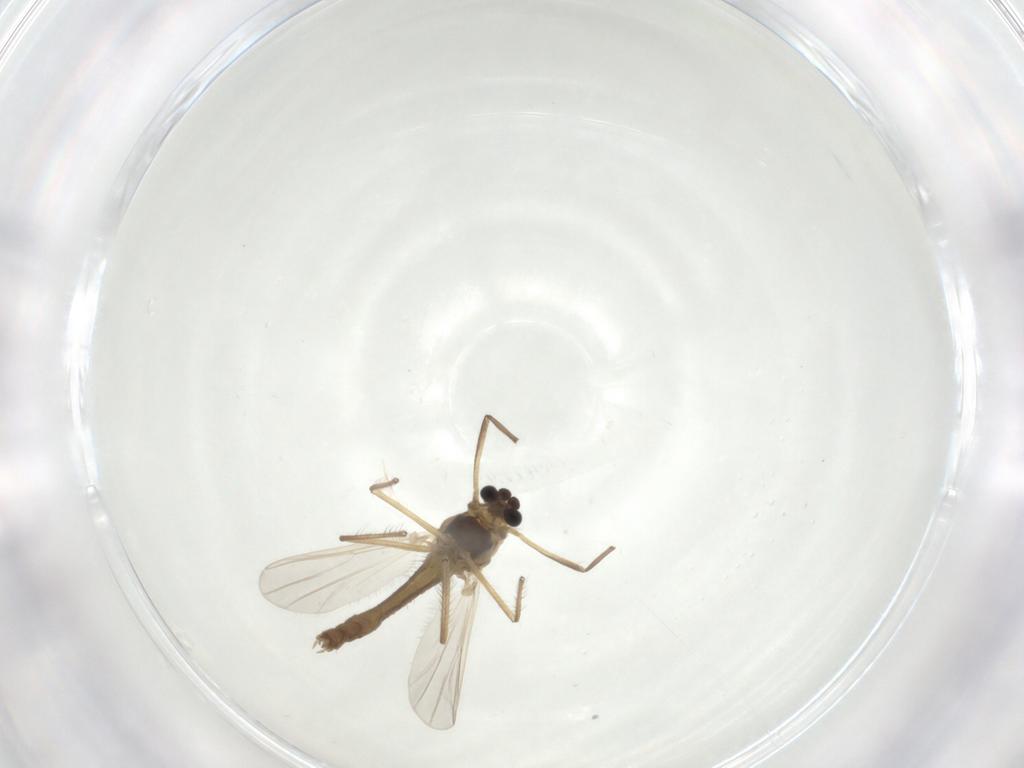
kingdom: Animalia
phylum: Arthropoda
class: Insecta
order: Diptera
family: Chironomidae
